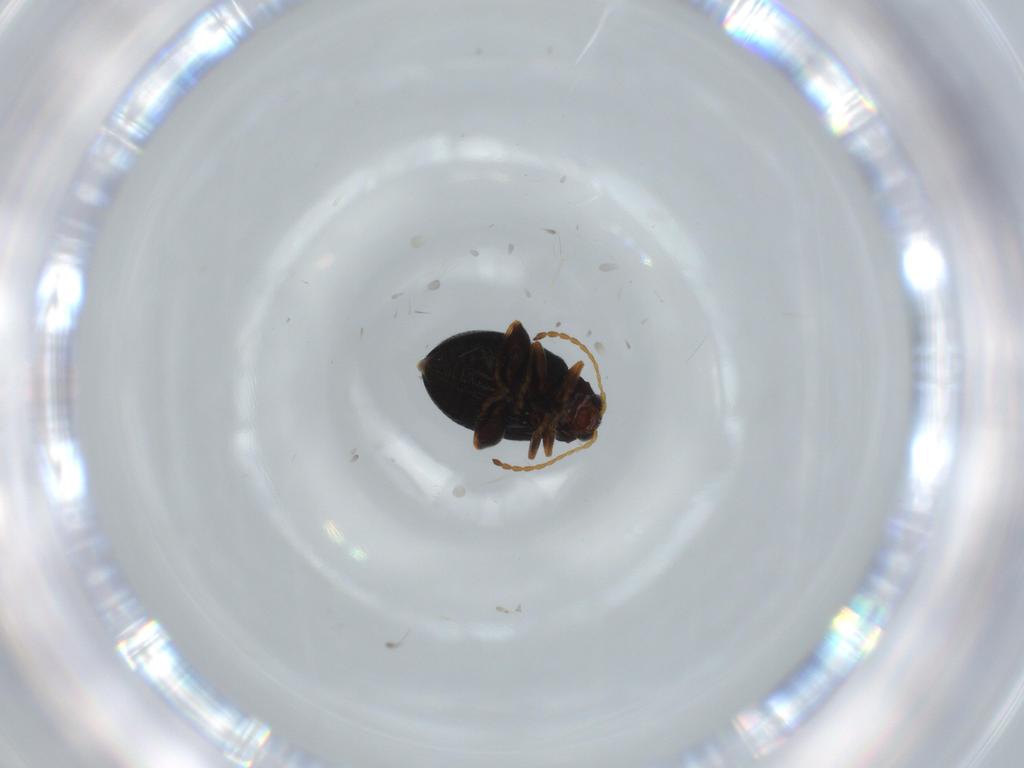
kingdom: Animalia
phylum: Arthropoda
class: Insecta
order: Coleoptera
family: Chrysomelidae
